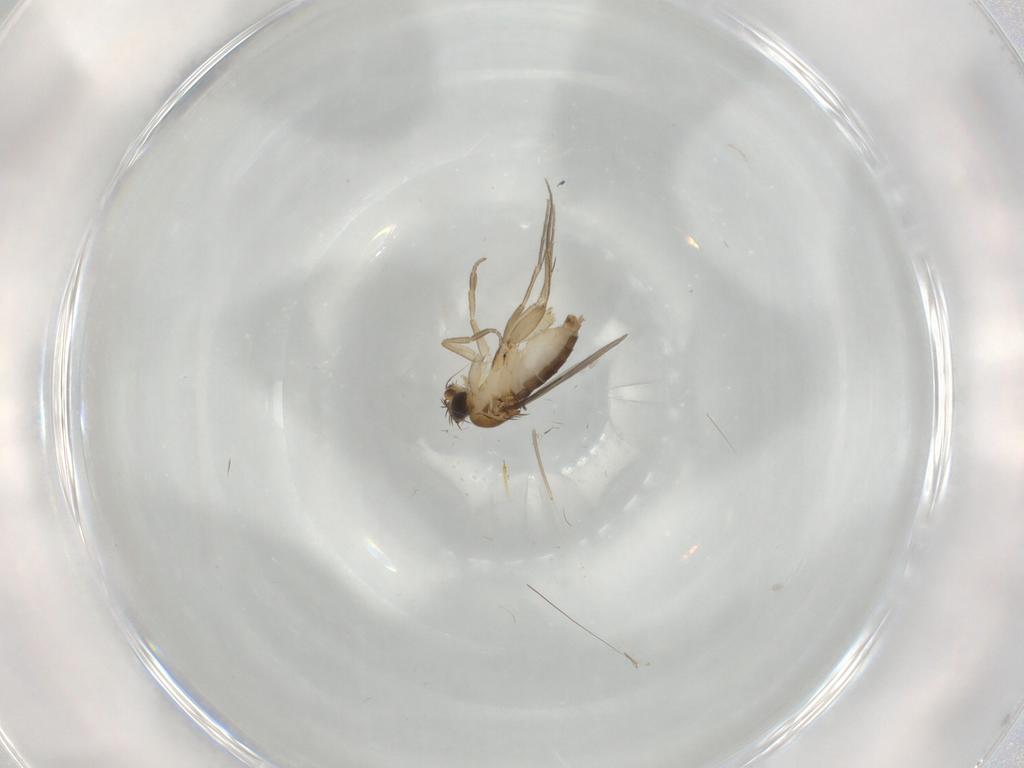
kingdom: Animalia
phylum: Arthropoda
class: Insecta
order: Diptera
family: Phoridae
